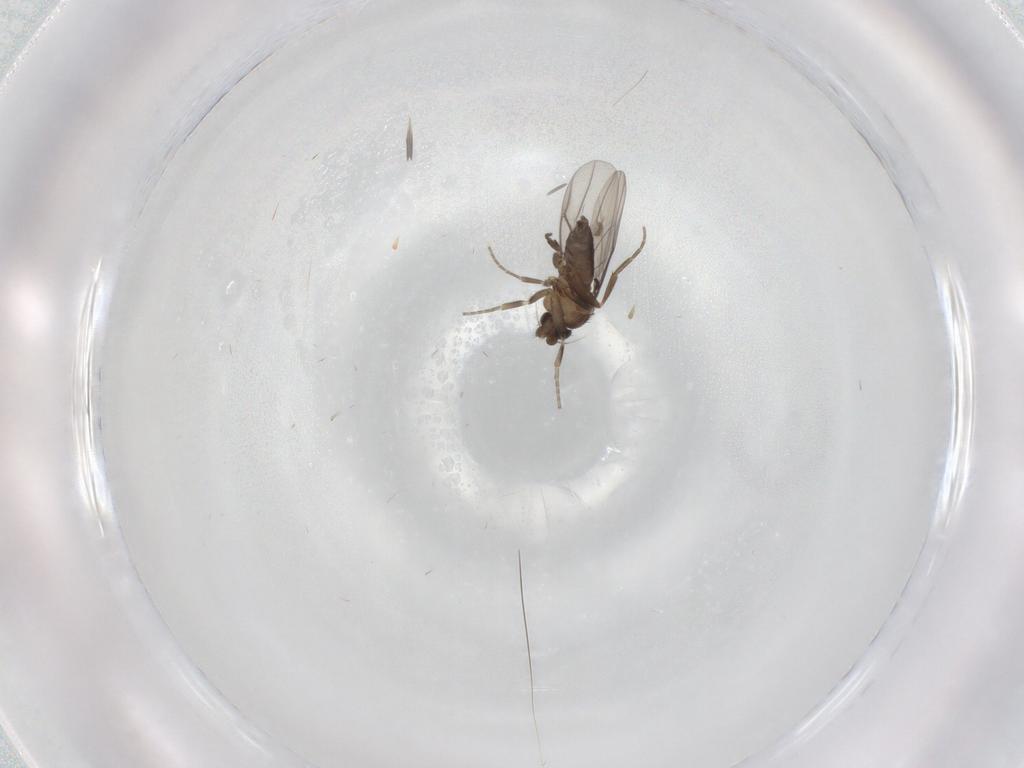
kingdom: Animalia
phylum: Arthropoda
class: Insecta
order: Diptera
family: Phoridae
